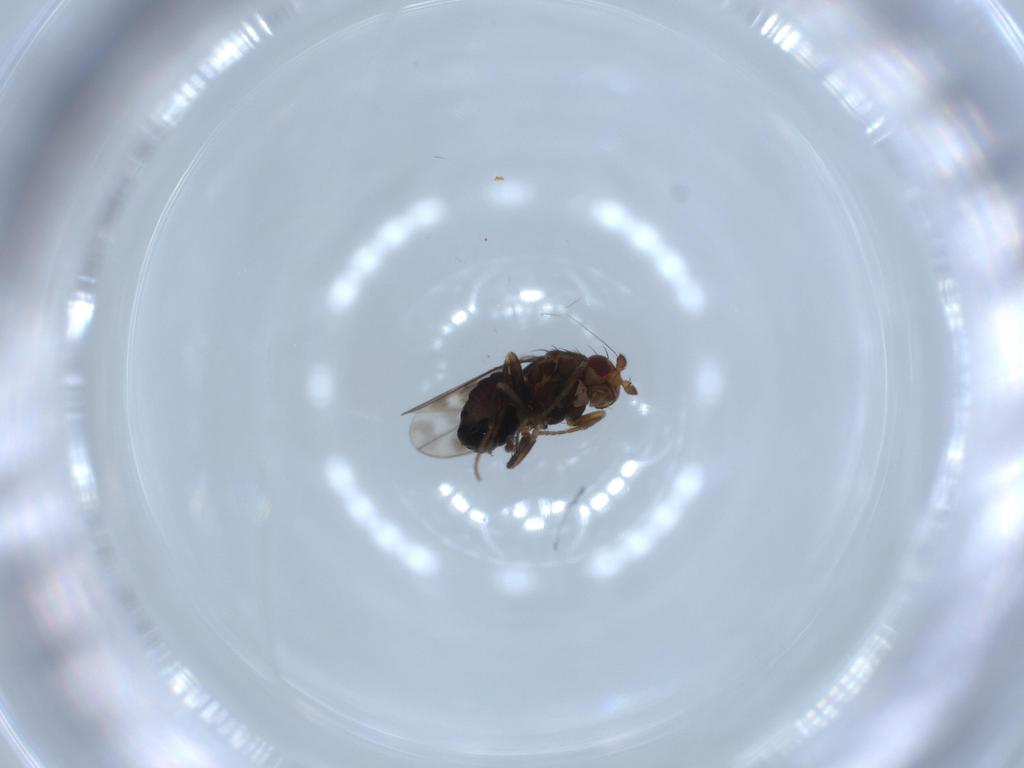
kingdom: Animalia
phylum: Arthropoda
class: Insecta
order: Diptera
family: Sphaeroceridae
